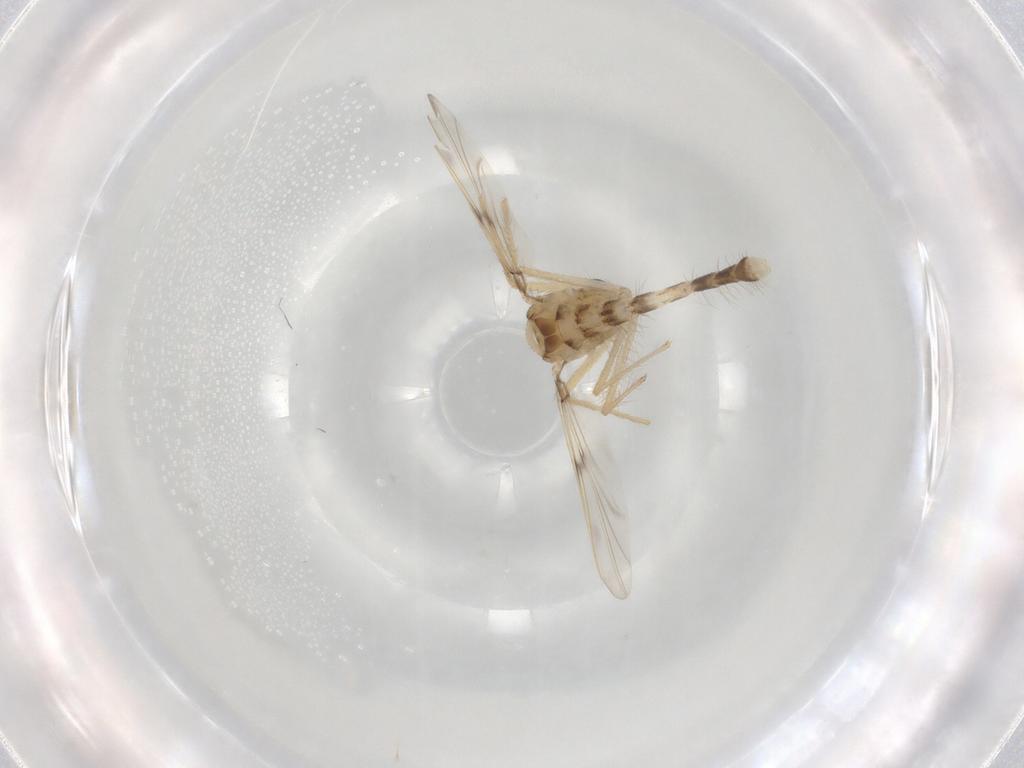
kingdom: Animalia
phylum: Arthropoda
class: Insecta
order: Diptera
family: Chironomidae
